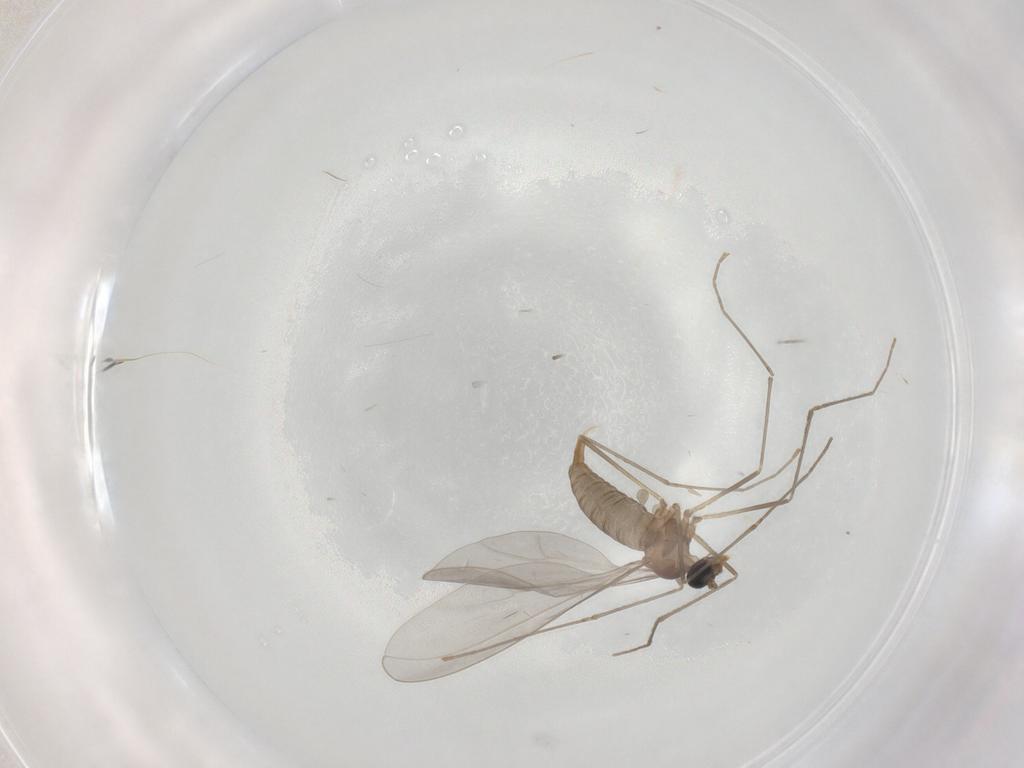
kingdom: Animalia
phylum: Arthropoda
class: Insecta
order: Diptera
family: Cecidomyiidae
